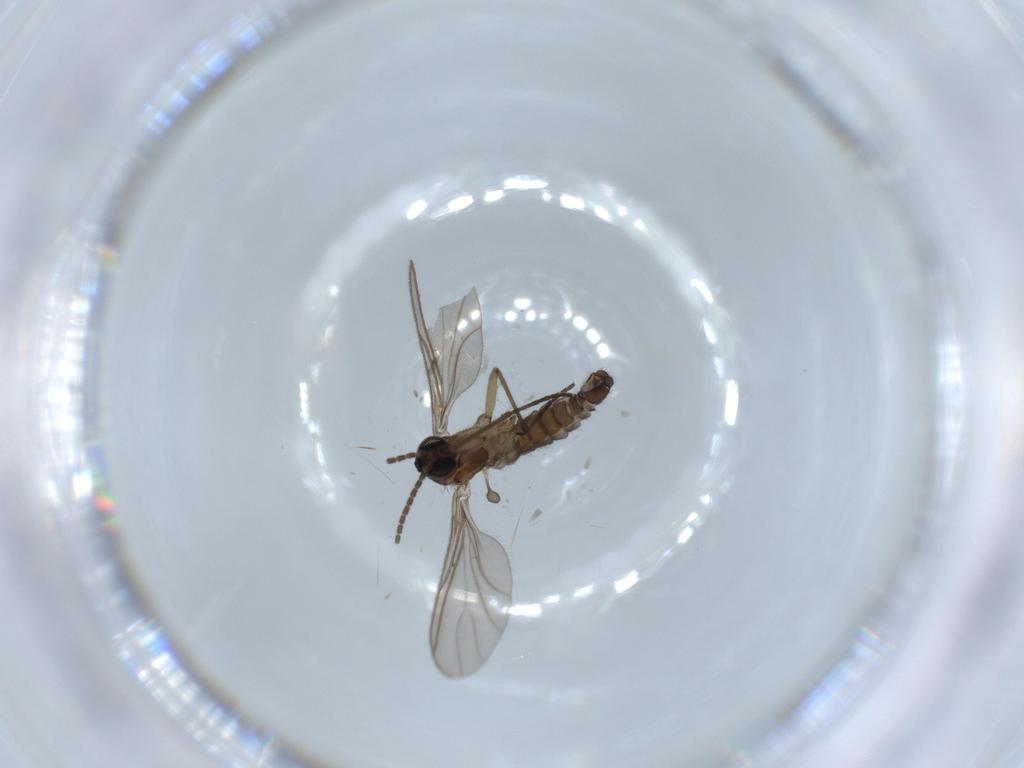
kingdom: Animalia
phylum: Arthropoda
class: Insecta
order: Diptera
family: Sciaridae
